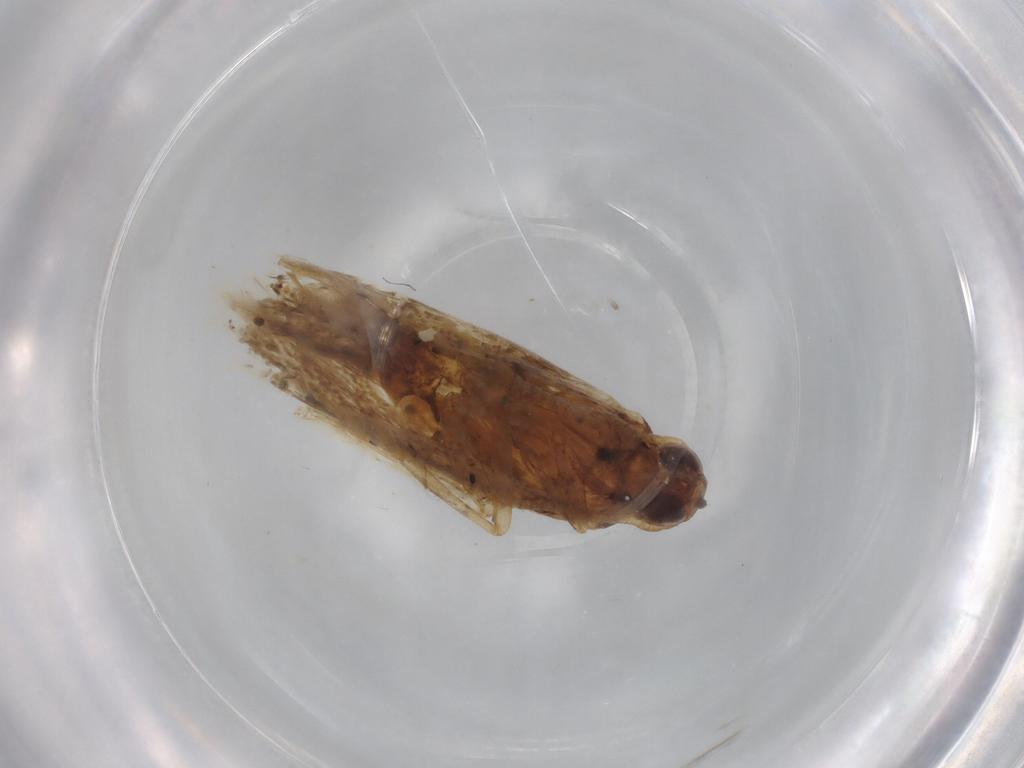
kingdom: Animalia
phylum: Arthropoda
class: Insecta
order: Lepidoptera
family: Gelechiidae
